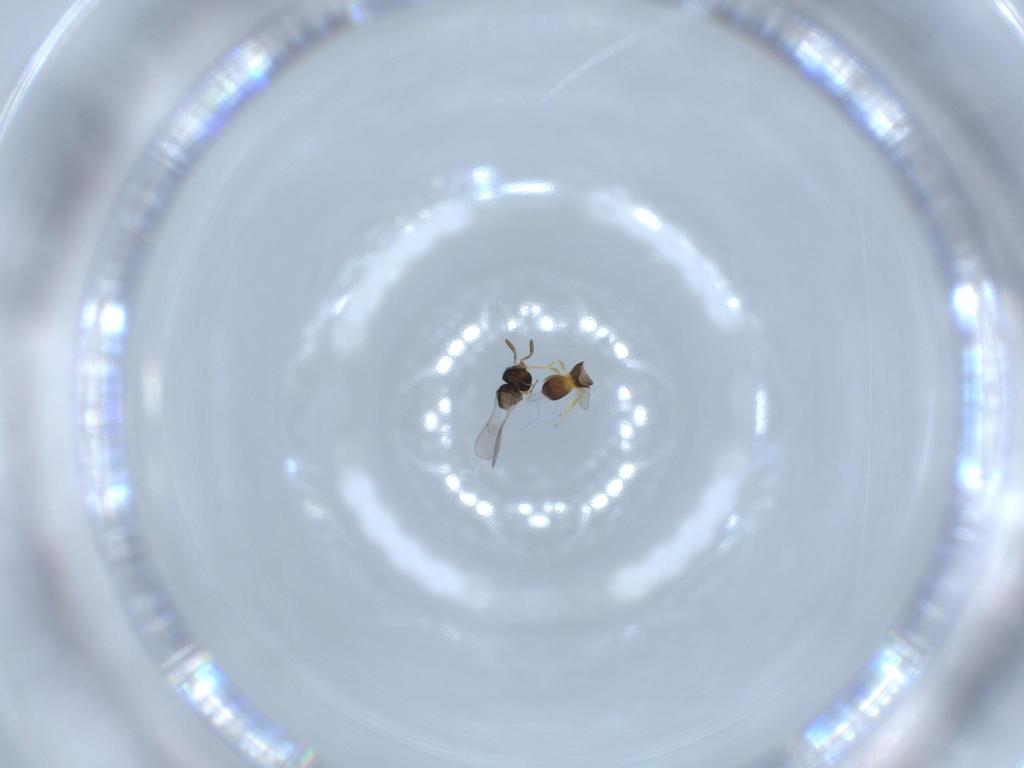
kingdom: Animalia
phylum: Arthropoda
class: Insecta
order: Hymenoptera
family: Scelionidae
